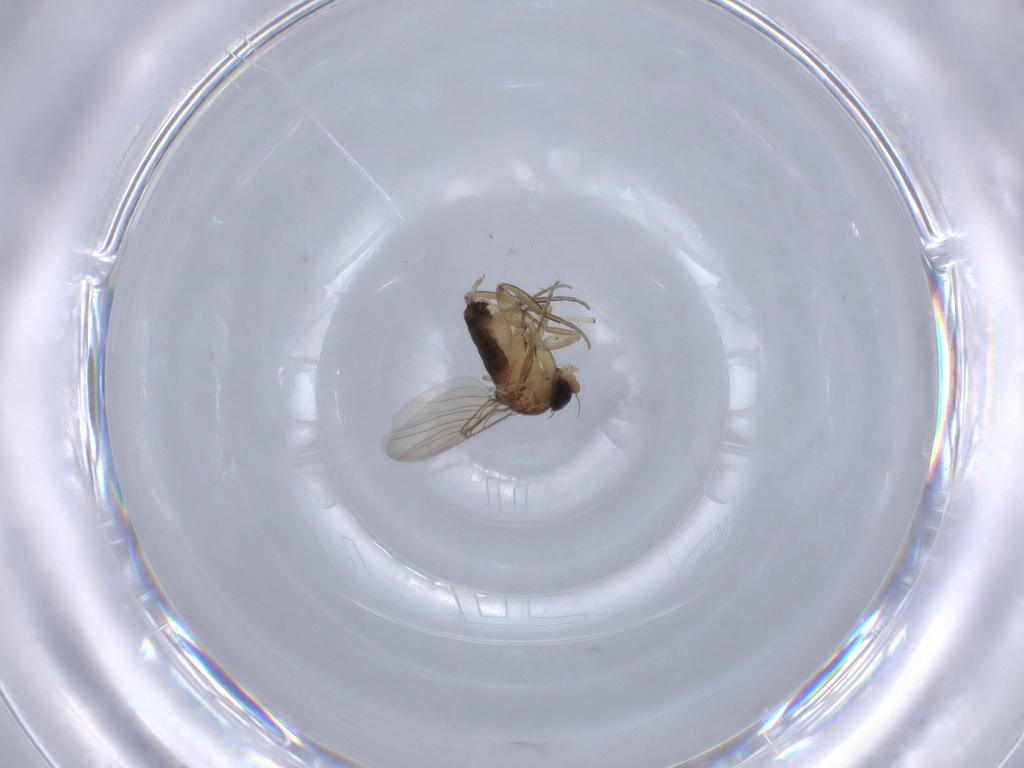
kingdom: Animalia
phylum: Arthropoda
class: Insecta
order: Diptera
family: Phoridae
